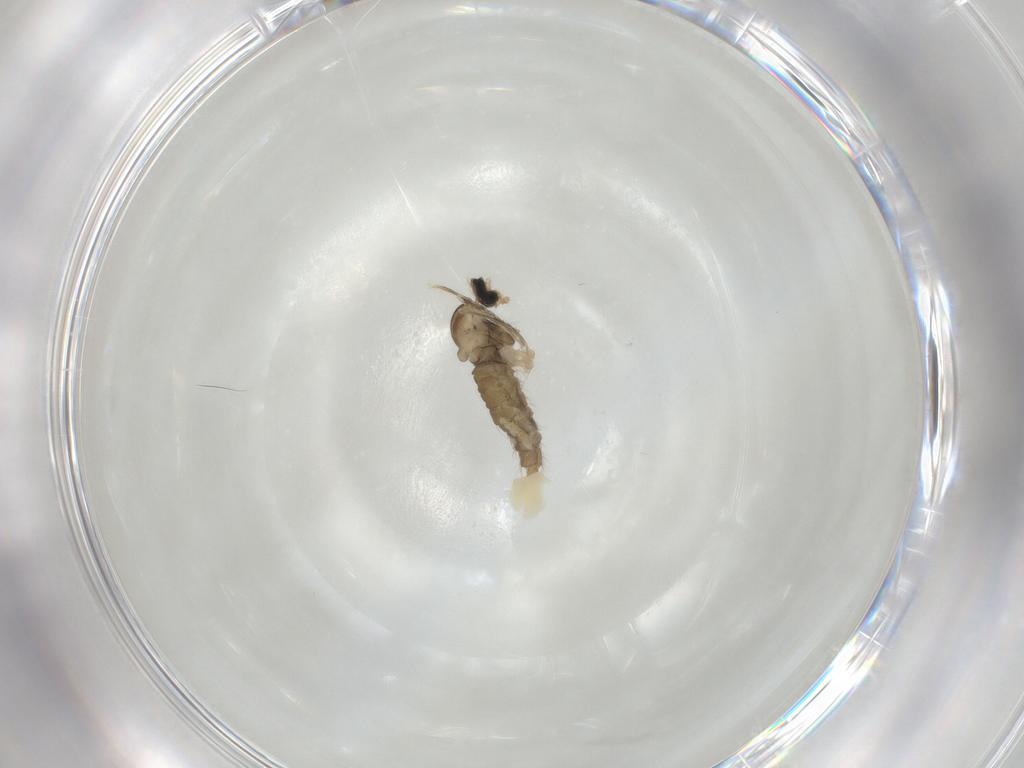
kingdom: Animalia
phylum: Arthropoda
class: Insecta
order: Diptera
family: Cecidomyiidae
